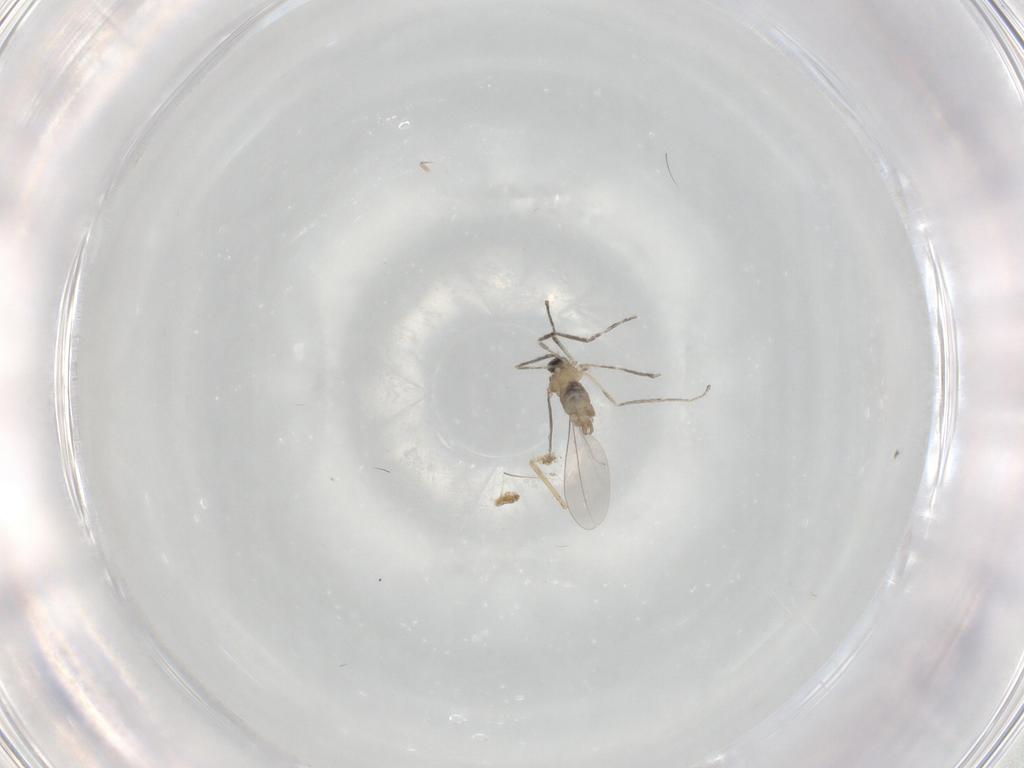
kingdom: Animalia
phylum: Arthropoda
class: Insecta
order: Diptera
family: Cecidomyiidae
